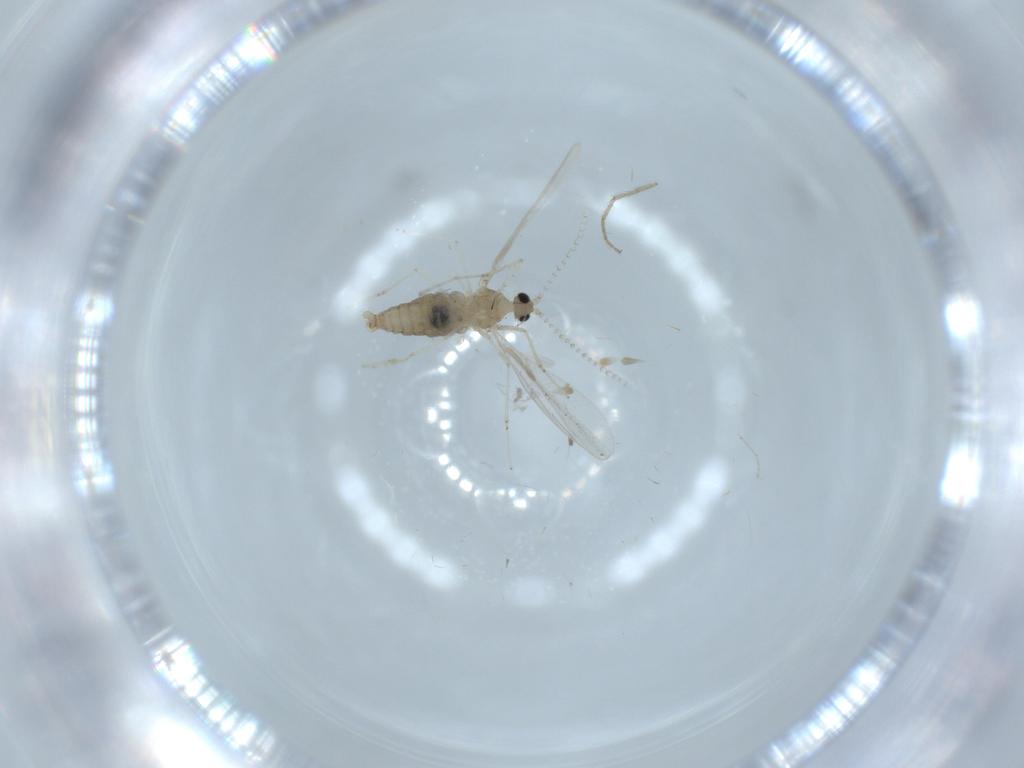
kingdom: Animalia
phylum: Arthropoda
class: Insecta
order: Diptera
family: Cecidomyiidae
